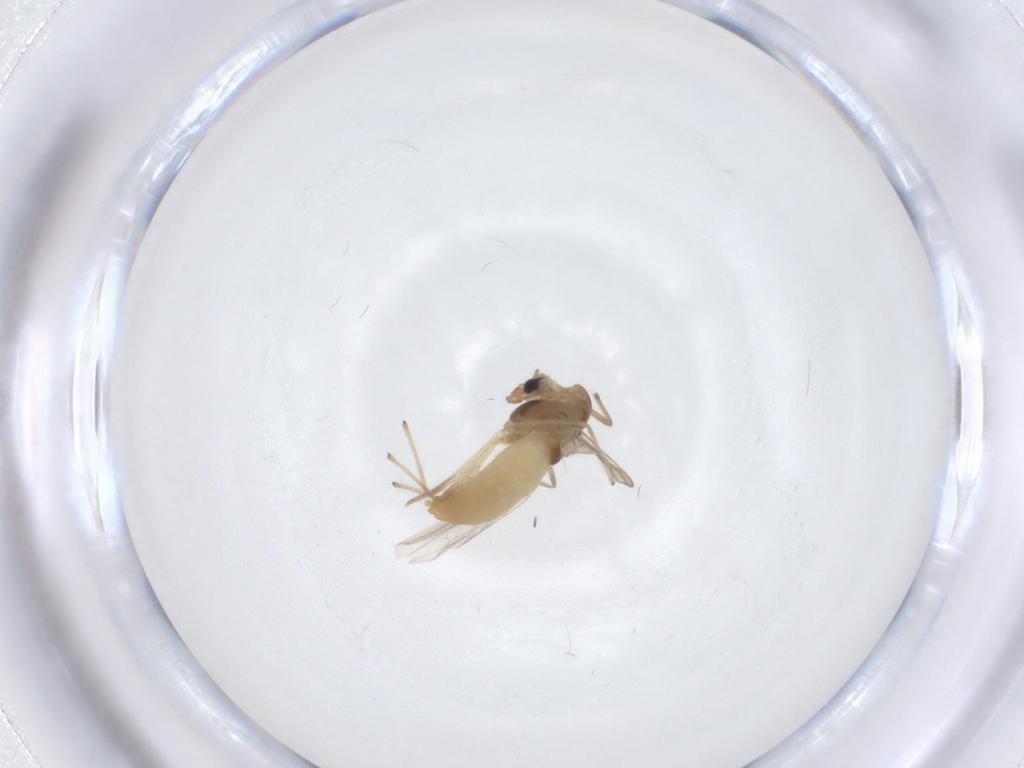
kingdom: Animalia
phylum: Arthropoda
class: Insecta
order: Diptera
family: Chironomidae
